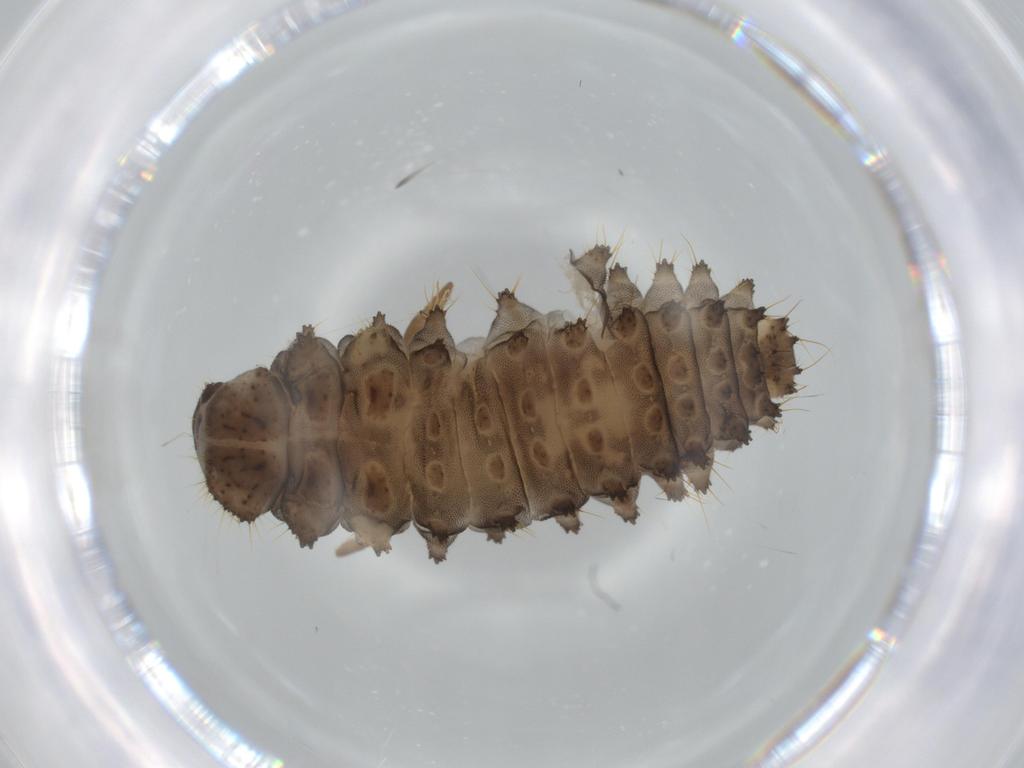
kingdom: Animalia
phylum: Arthropoda
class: Insecta
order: Coleoptera
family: Coccinellidae
